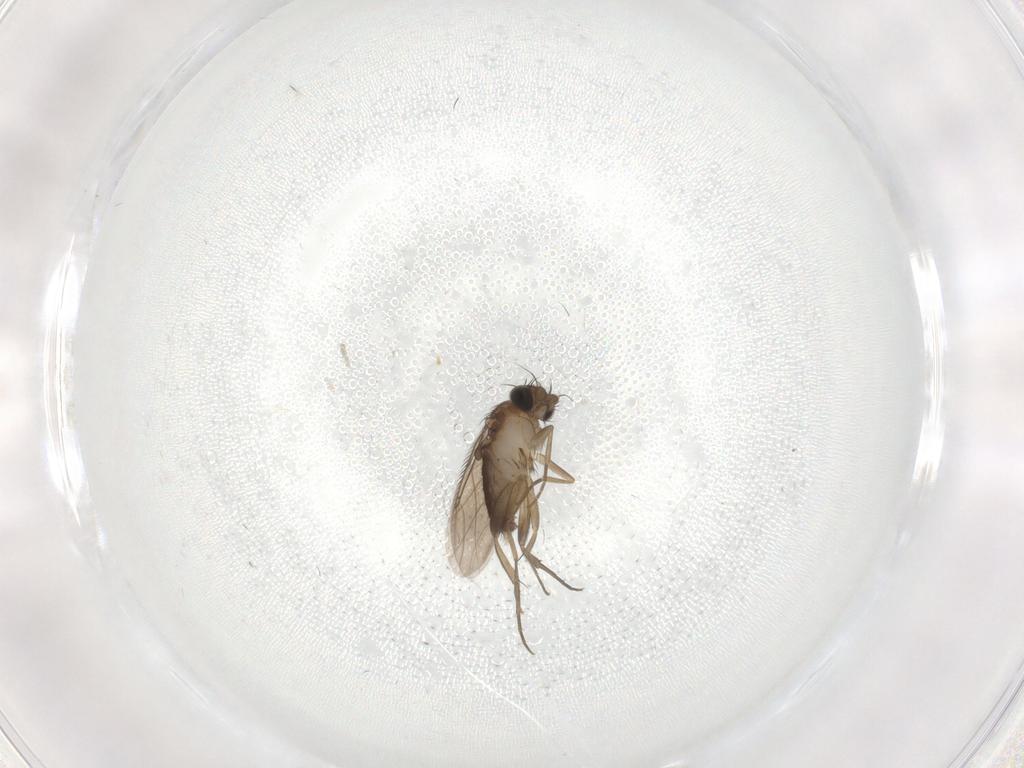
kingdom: Animalia
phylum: Arthropoda
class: Insecta
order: Diptera
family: Phoridae
